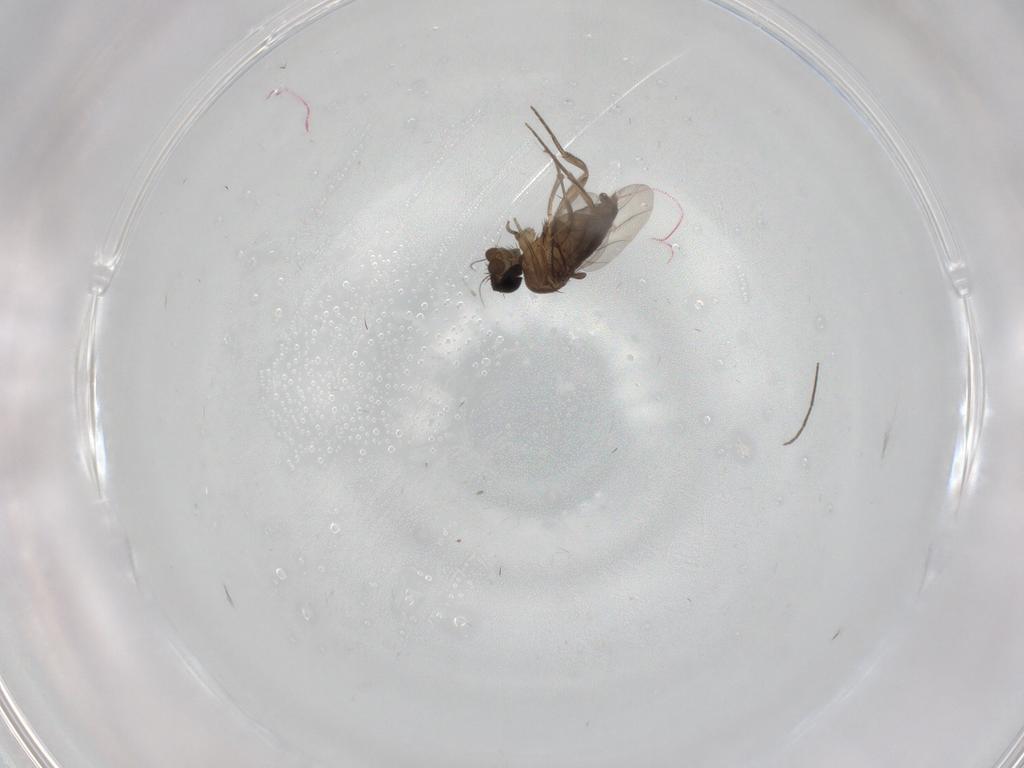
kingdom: Animalia
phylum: Arthropoda
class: Insecta
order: Diptera
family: Phoridae
